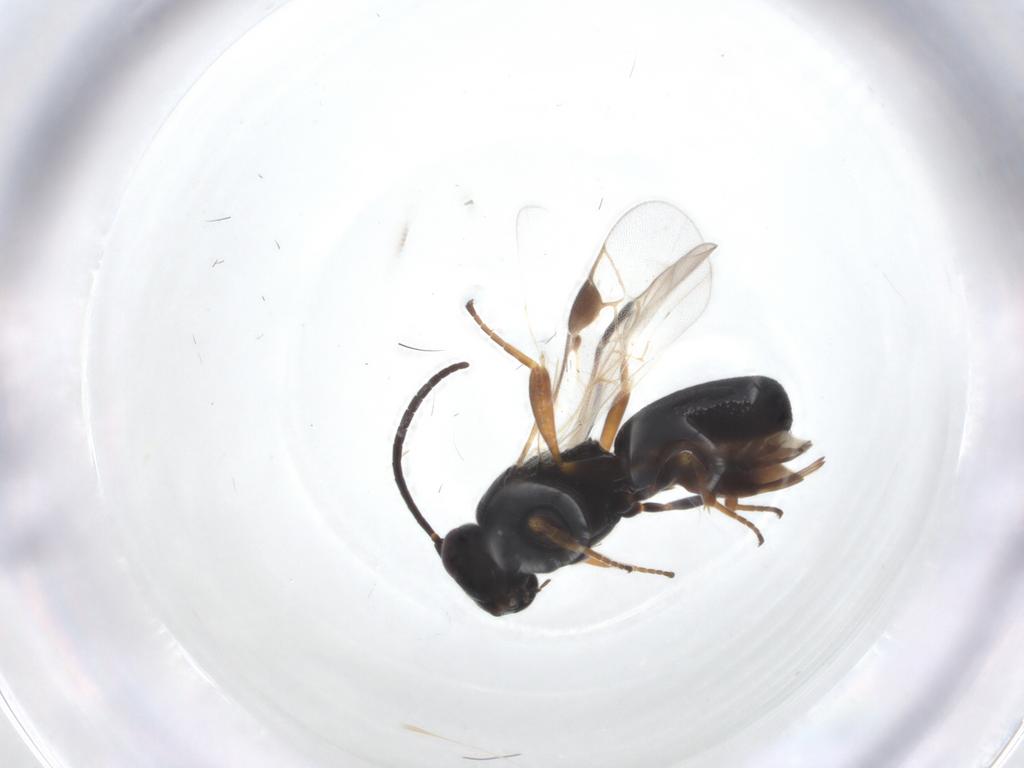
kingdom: Animalia
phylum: Arthropoda
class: Insecta
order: Hymenoptera
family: Braconidae
